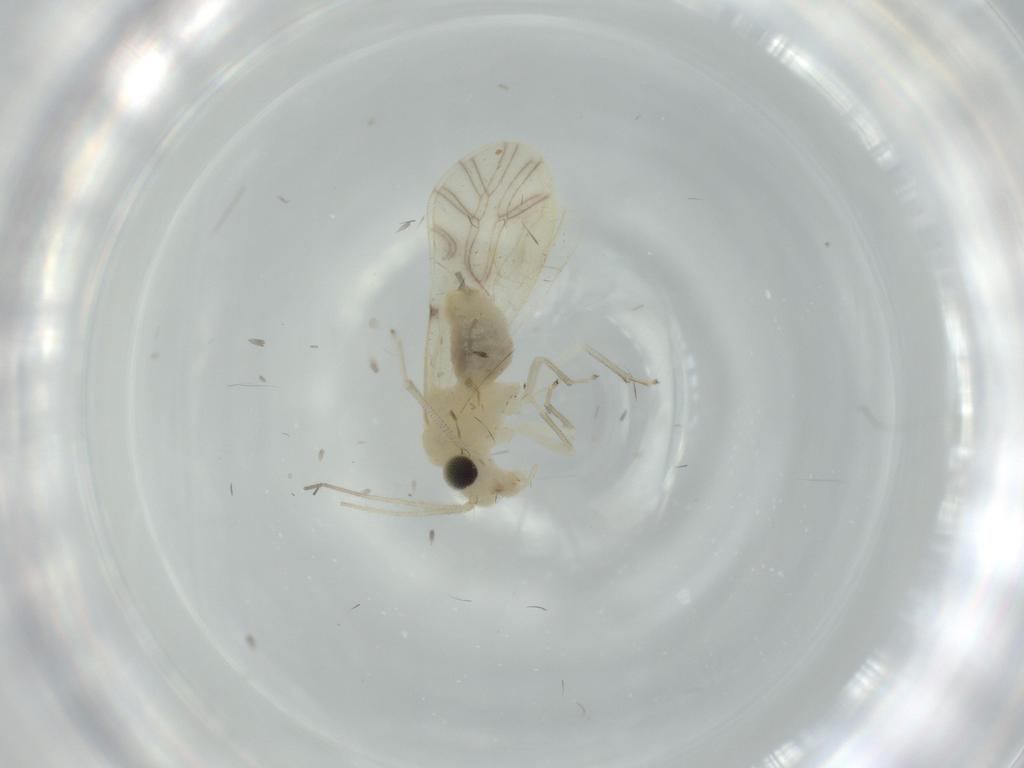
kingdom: Animalia
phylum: Arthropoda
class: Insecta
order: Psocodea
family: Caeciliusidae
